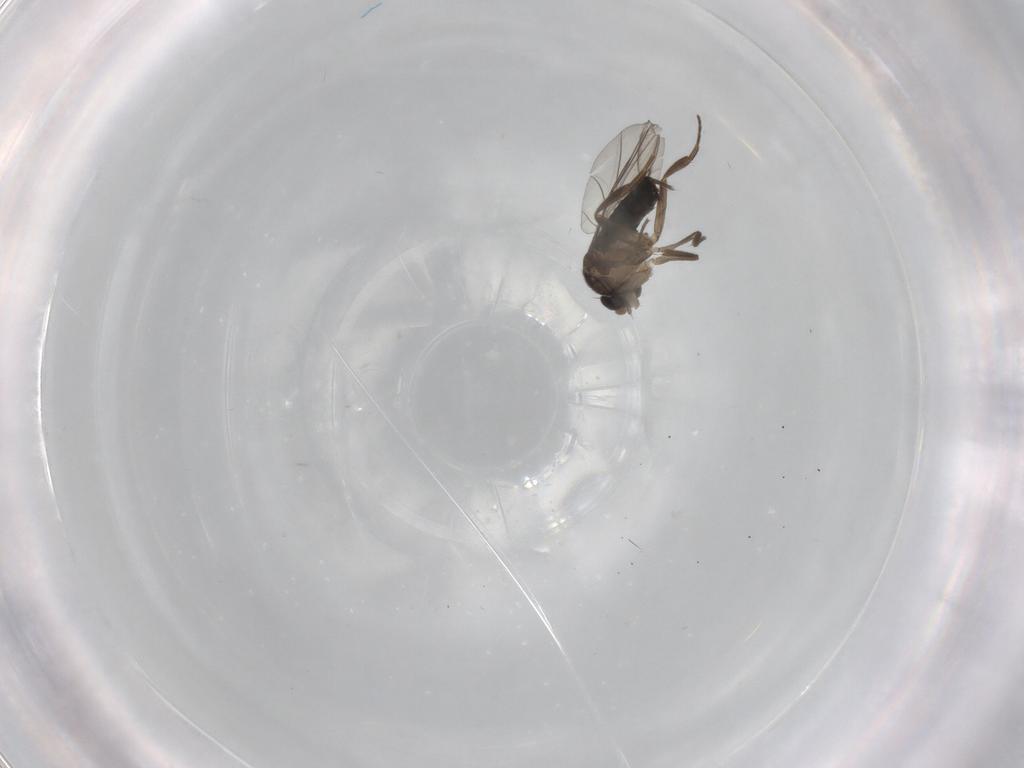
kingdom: Animalia
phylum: Arthropoda
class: Insecta
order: Diptera
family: Phoridae
